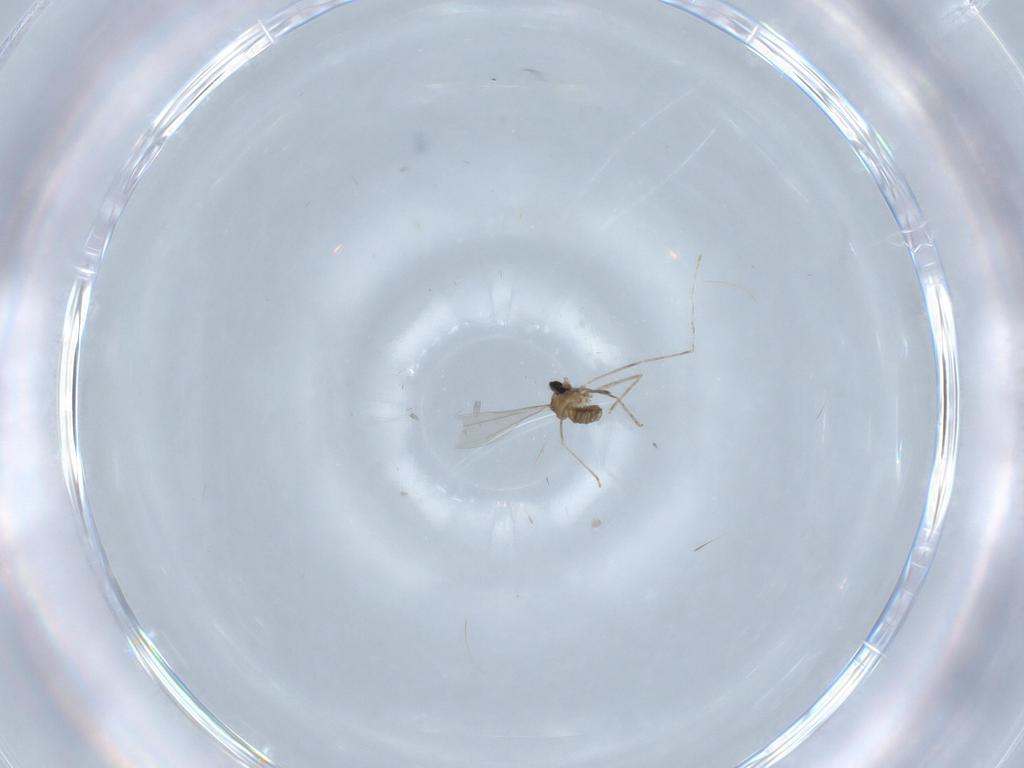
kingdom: Animalia
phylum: Arthropoda
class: Insecta
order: Diptera
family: Cecidomyiidae
